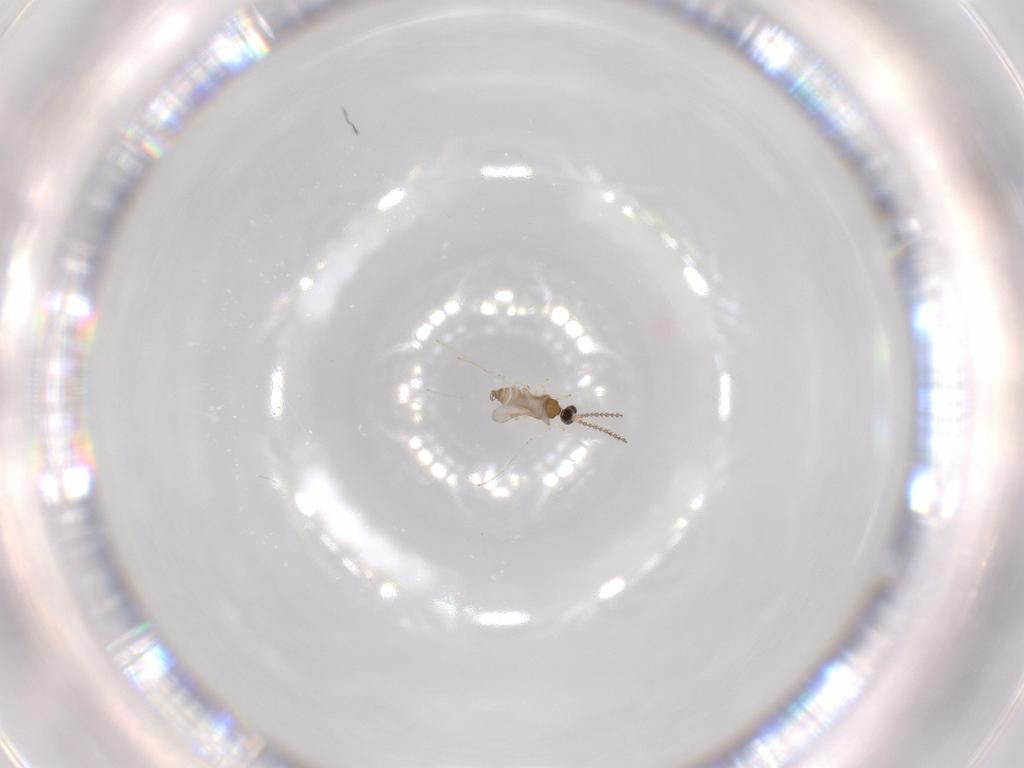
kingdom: Animalia
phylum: Arthropoda
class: Insecta
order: Diptera
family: Cecidomyiidae
